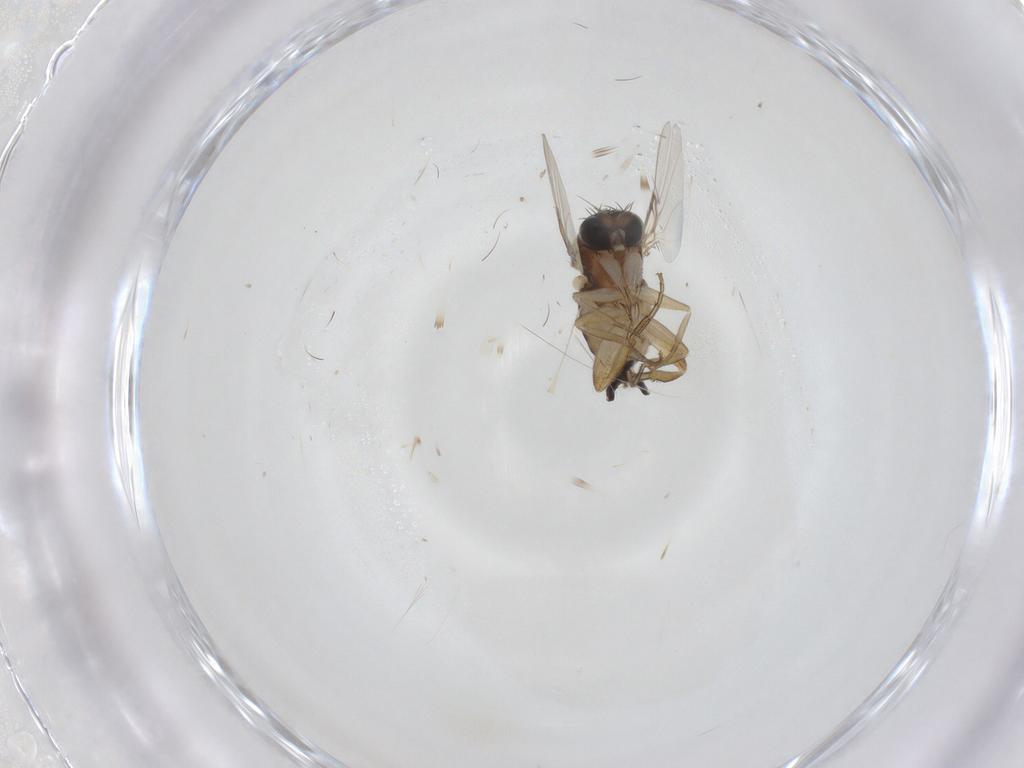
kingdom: Animalia
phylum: Arthropoda
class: Insecta
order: Diptera
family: Phoridae
